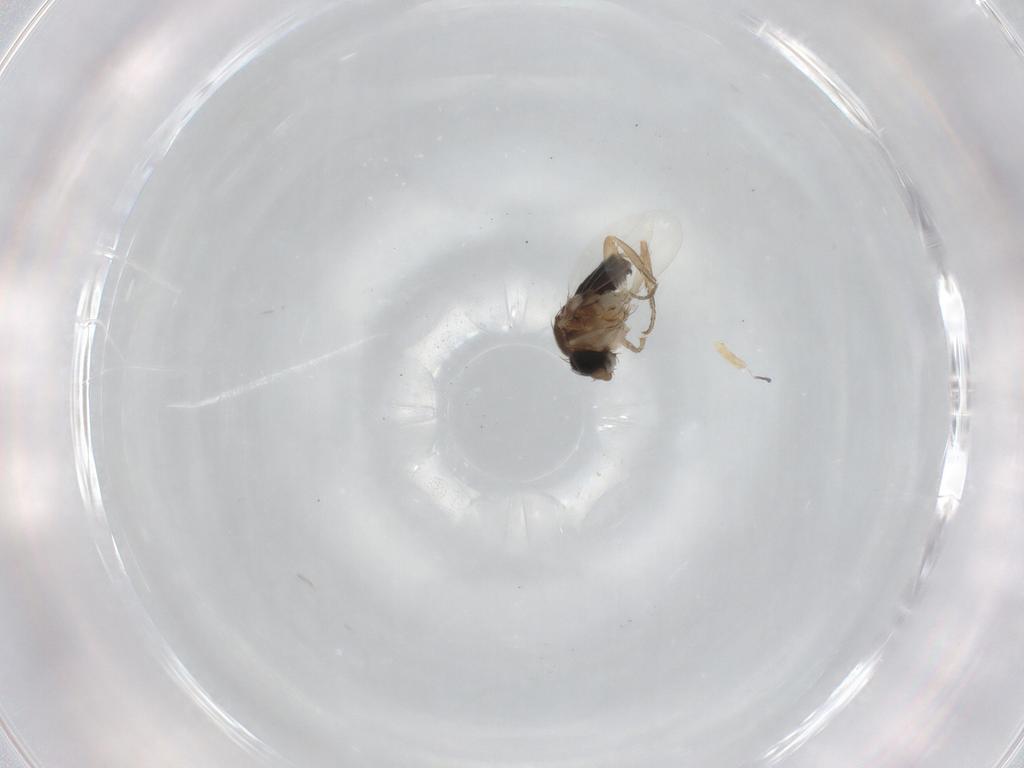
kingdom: Animalia
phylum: Arthropoda
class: Insecta
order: Diptera
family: Phoridae
